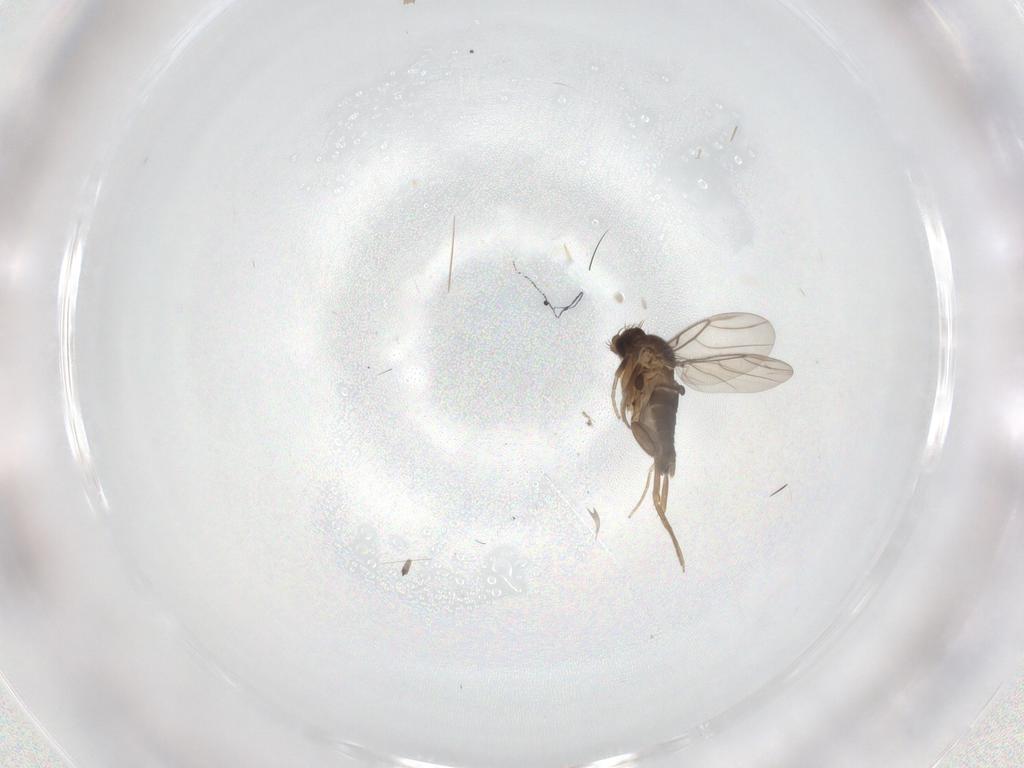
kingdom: Animalia
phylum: Arthropoda
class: Insecta
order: Diptera
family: Phoridae
